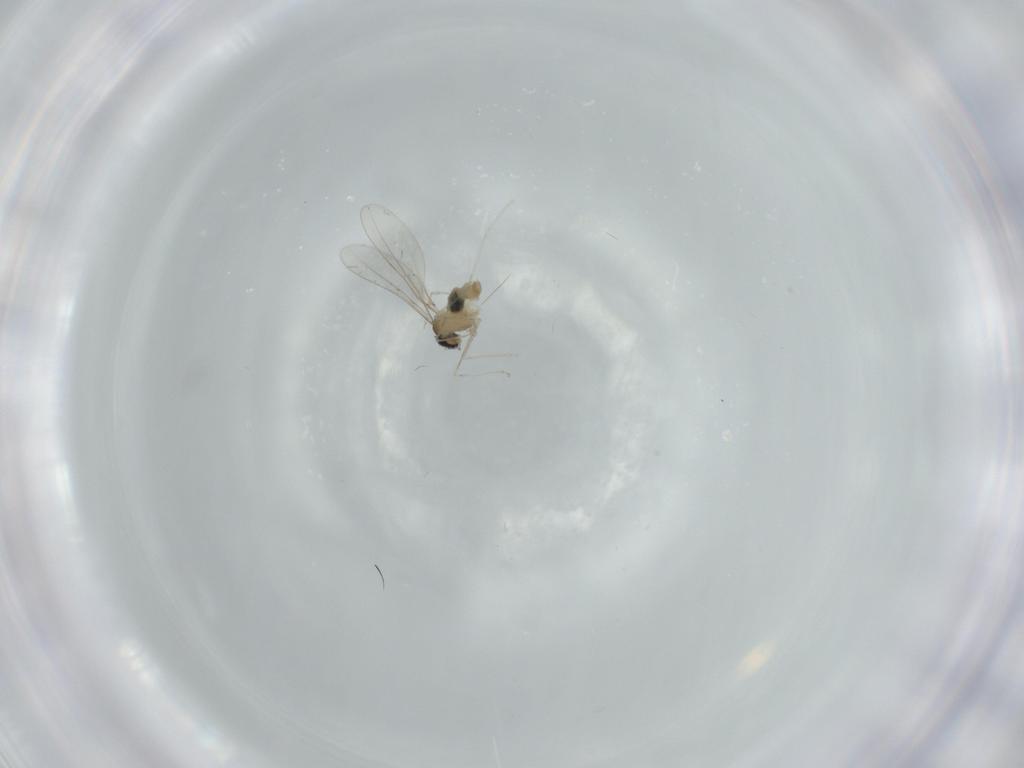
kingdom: Animalia
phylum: Arthropoda
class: Insecta
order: Diptera
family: Cecidomyiidae
